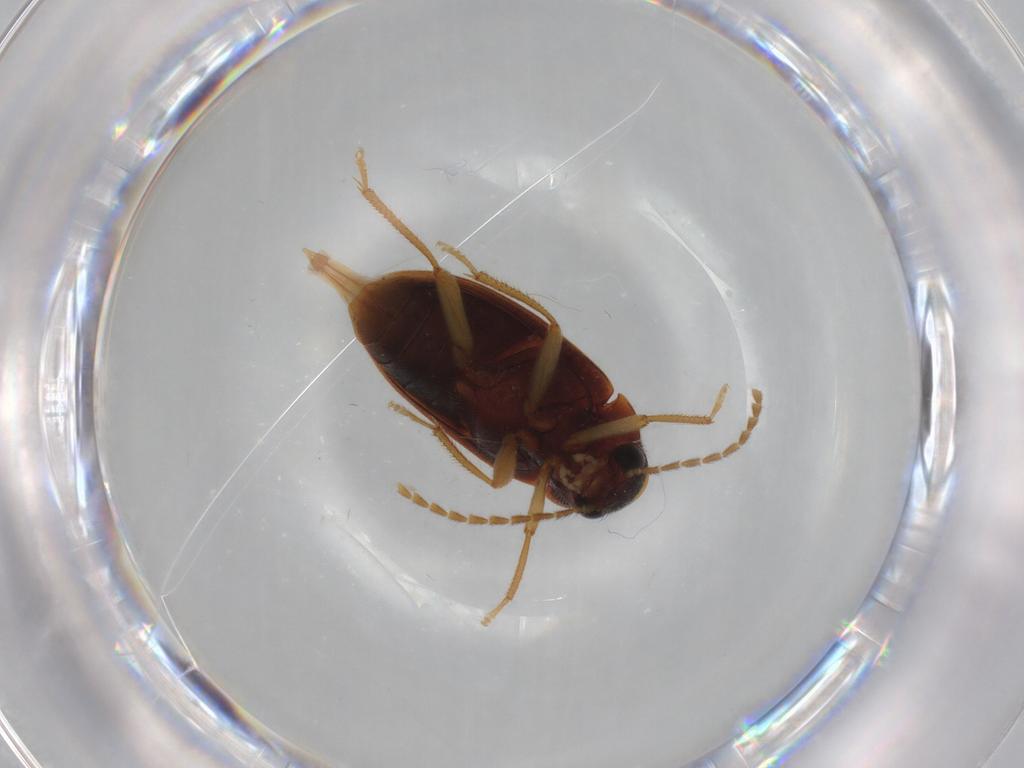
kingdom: Animalia
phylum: Arthropoda
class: Insecta
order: Coleoptera
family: Ptilodactylidae
